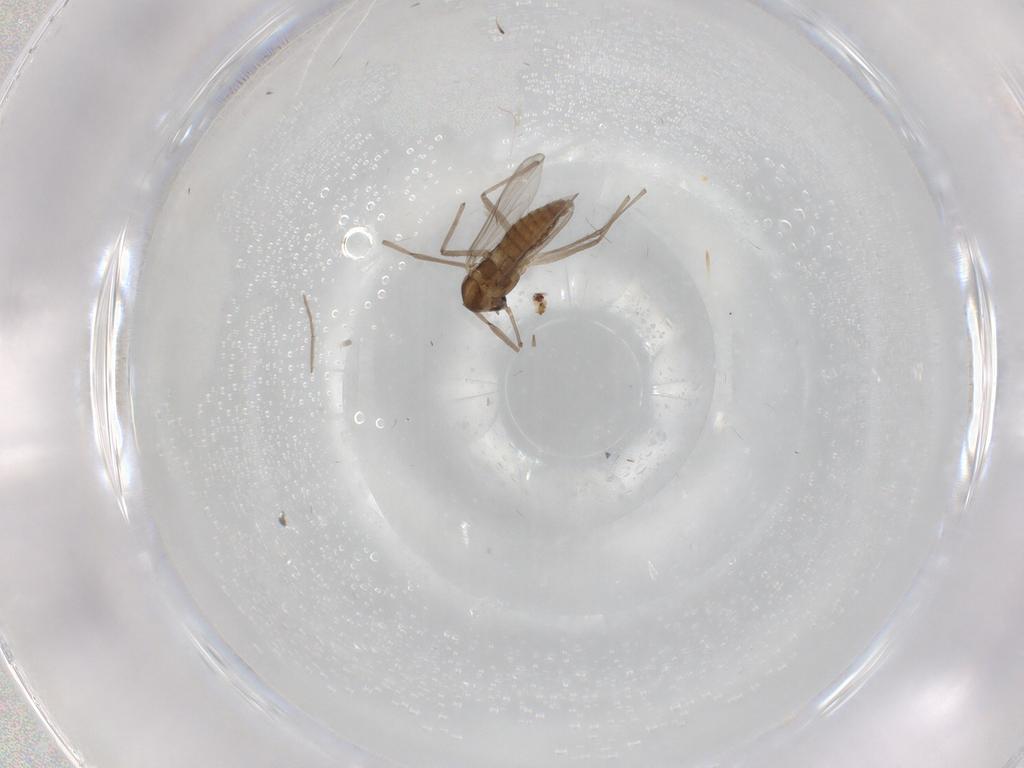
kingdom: Animalia
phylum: Arthropoda
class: Insecta
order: Diptera
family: Psychodidae
